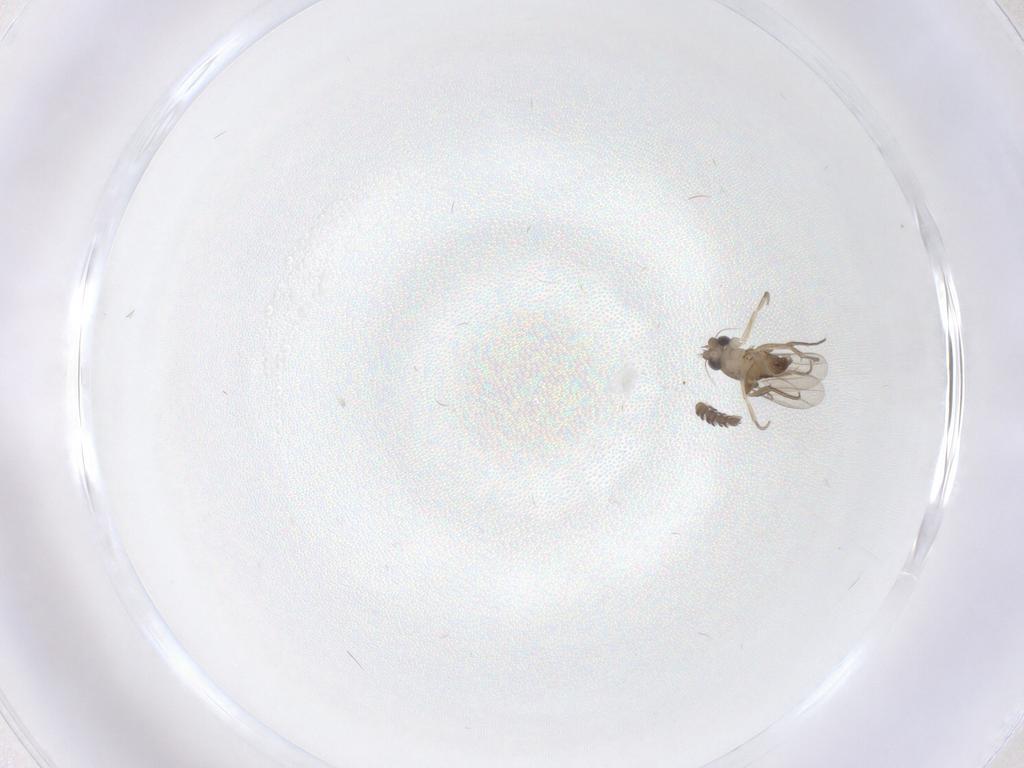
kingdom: Animalia
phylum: Arthropoda
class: Insecta
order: Diptera
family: Phoridae
